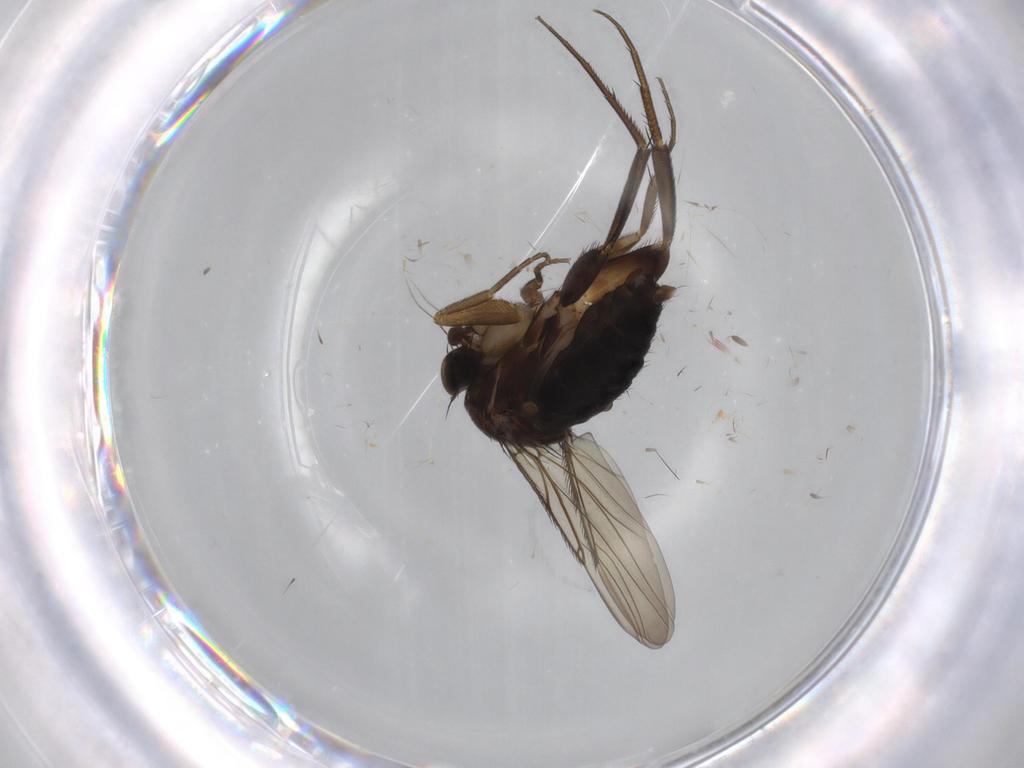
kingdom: Animalia
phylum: Arthropoda
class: Insecta
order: Diptera
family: Phoridae
